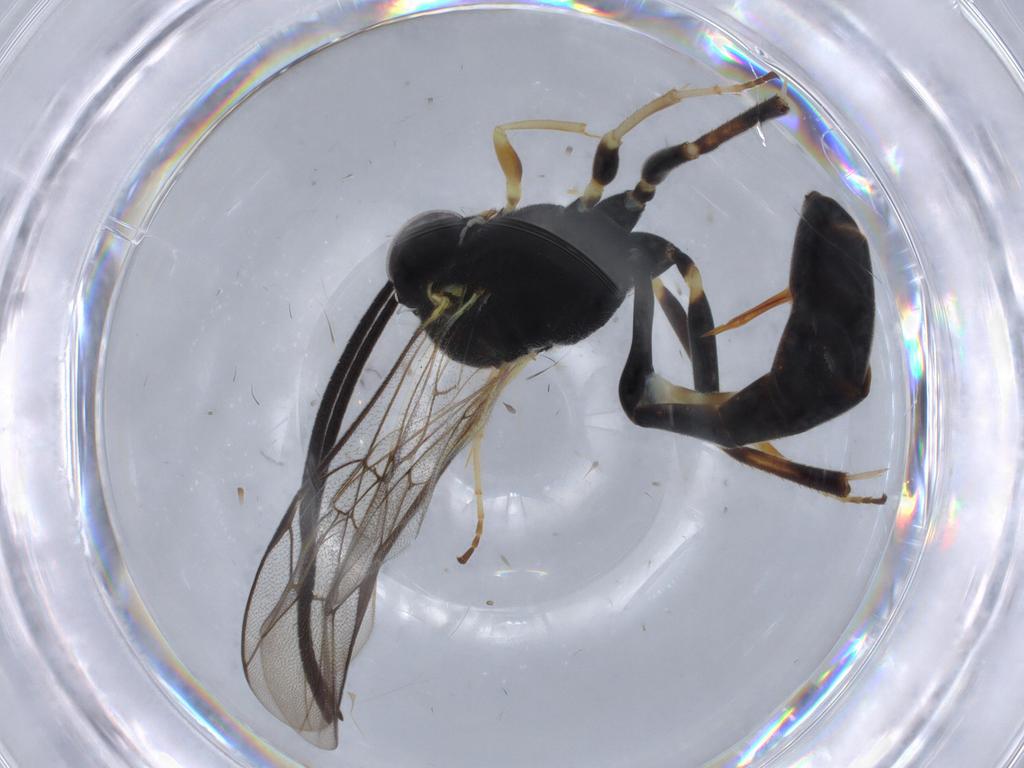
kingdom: Animalia
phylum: Arthropoda
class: Insecta
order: Hymenoptera
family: Ichneumonidae
